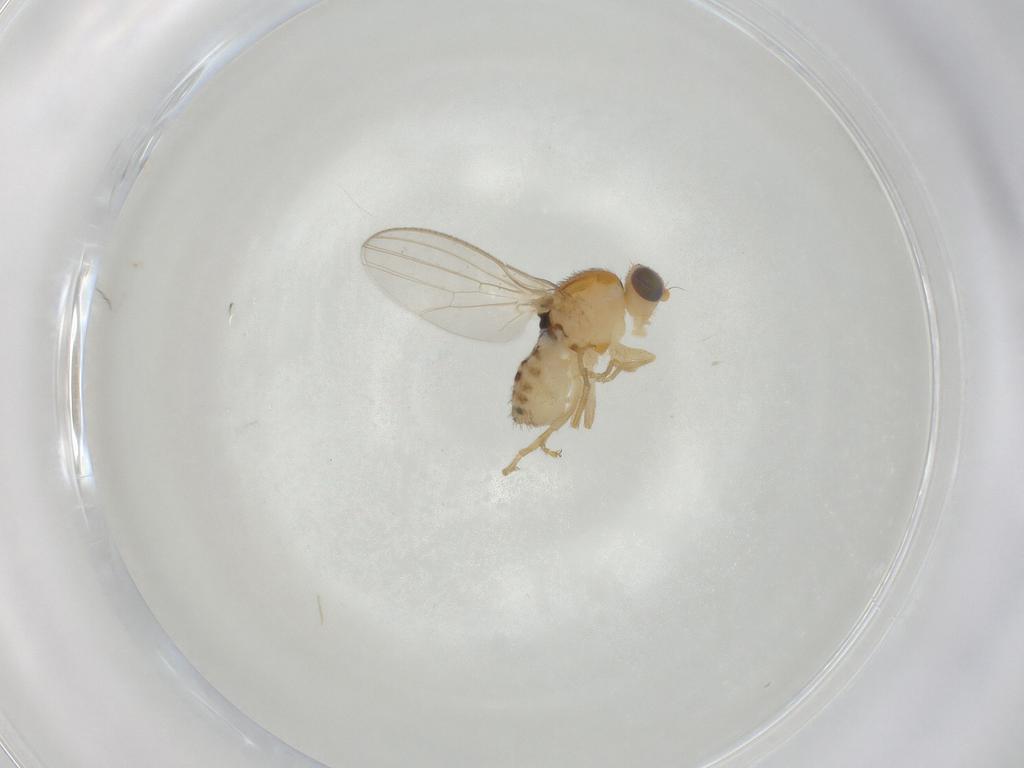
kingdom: Animalia
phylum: Arthropoda
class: Insecta
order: Diptera
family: Chyromyidae
